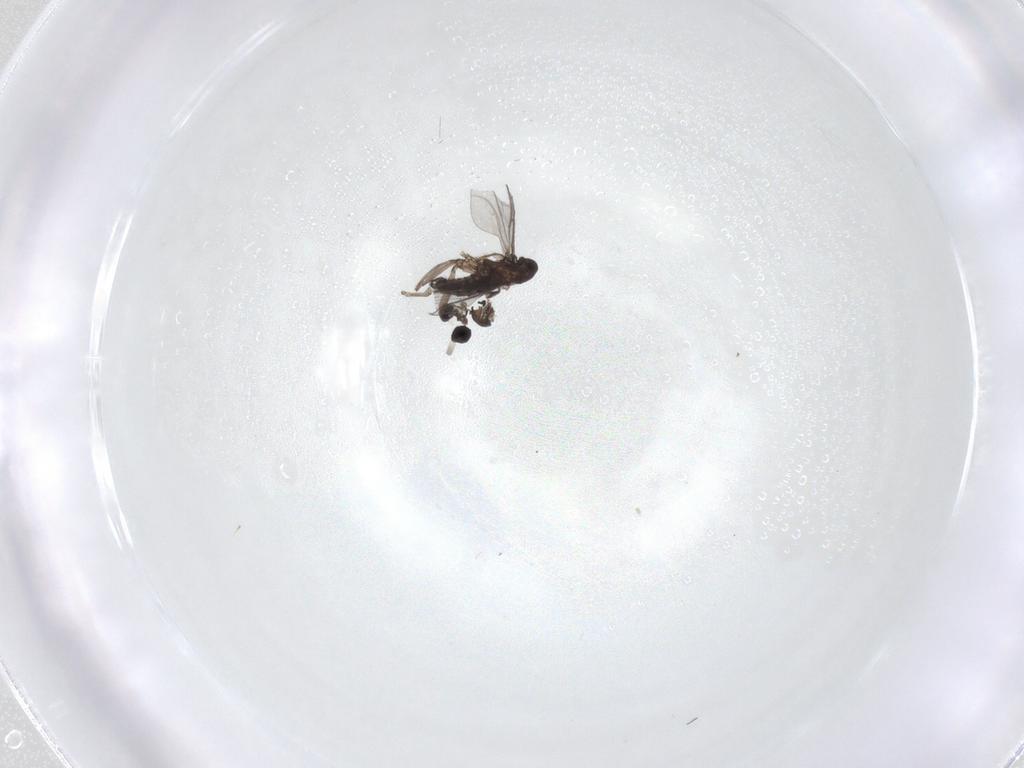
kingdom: Animalia
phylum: Arthropoda
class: Insecta
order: Diptera
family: Sciaridae
